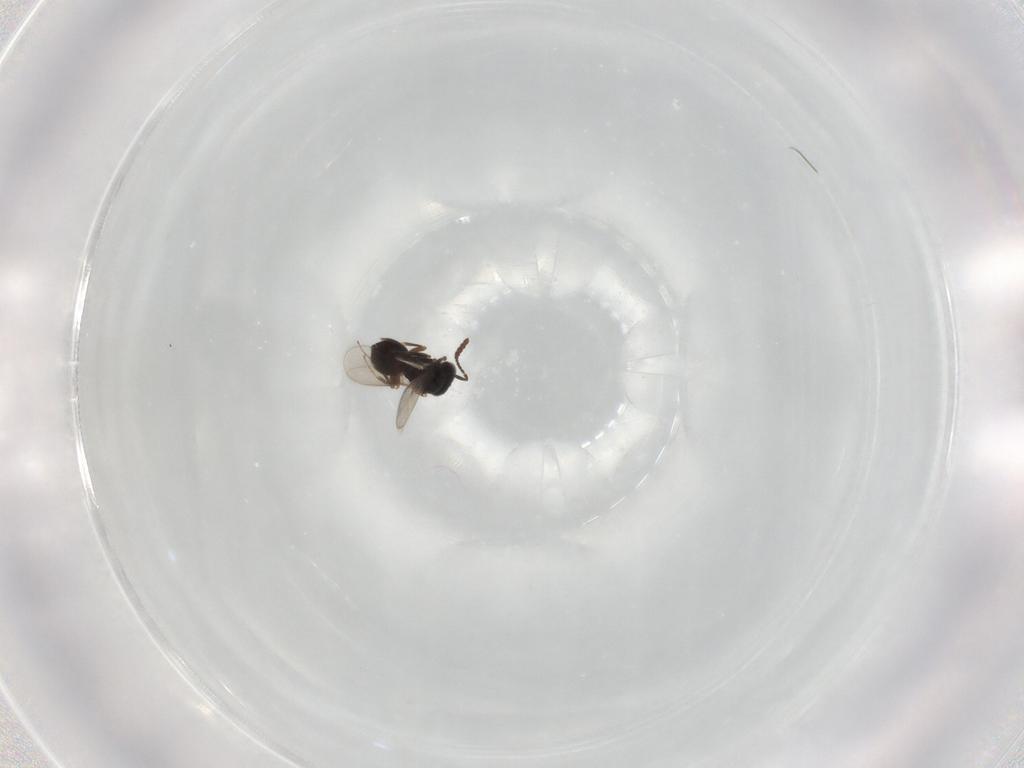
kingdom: Animalia
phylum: Arthropoda
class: Insecta
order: Hymenoptera
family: Scelionidae
